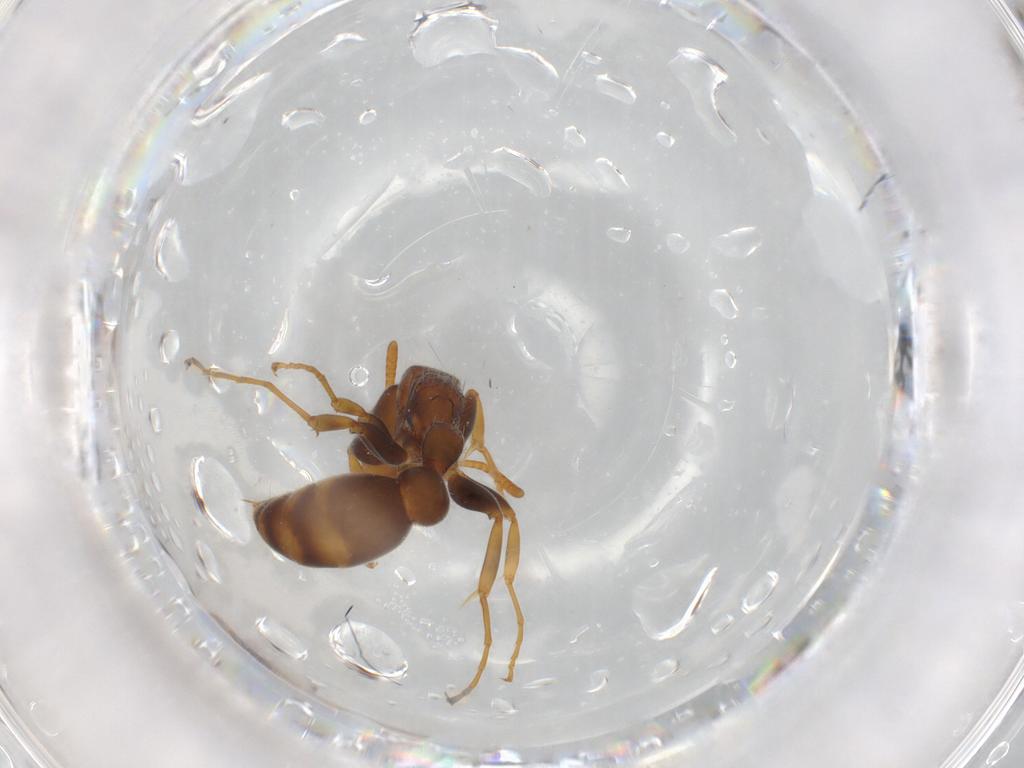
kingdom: Animalia
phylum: Arthropoda
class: Insecta
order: Hymenoptera
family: Formicidae
